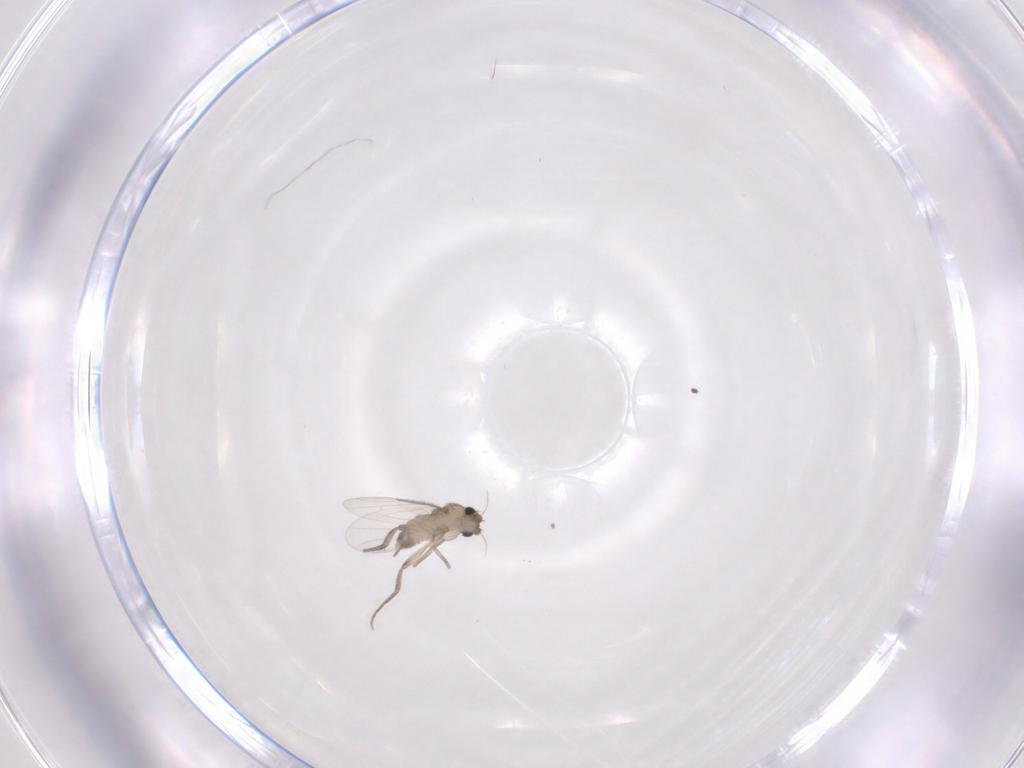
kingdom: Animalia
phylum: Arthropoda
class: Insecta
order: Diptera
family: Phoridae
